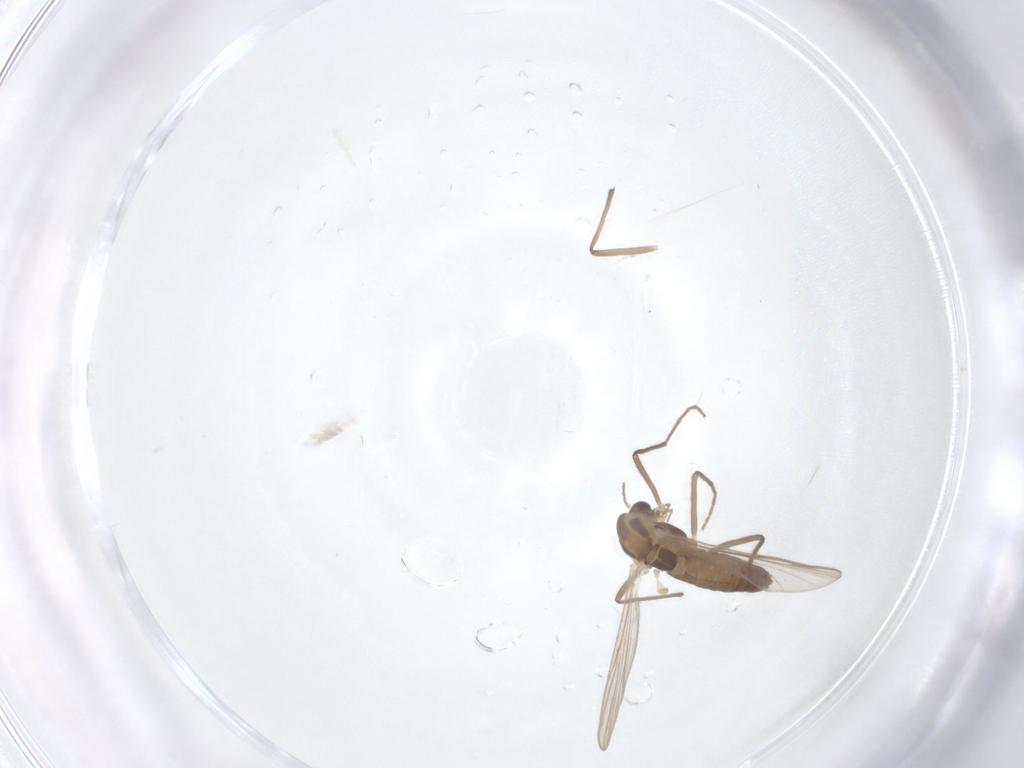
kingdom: Animalia
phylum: Arthropoda
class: Insecta
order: Diptera
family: Chironomidae
